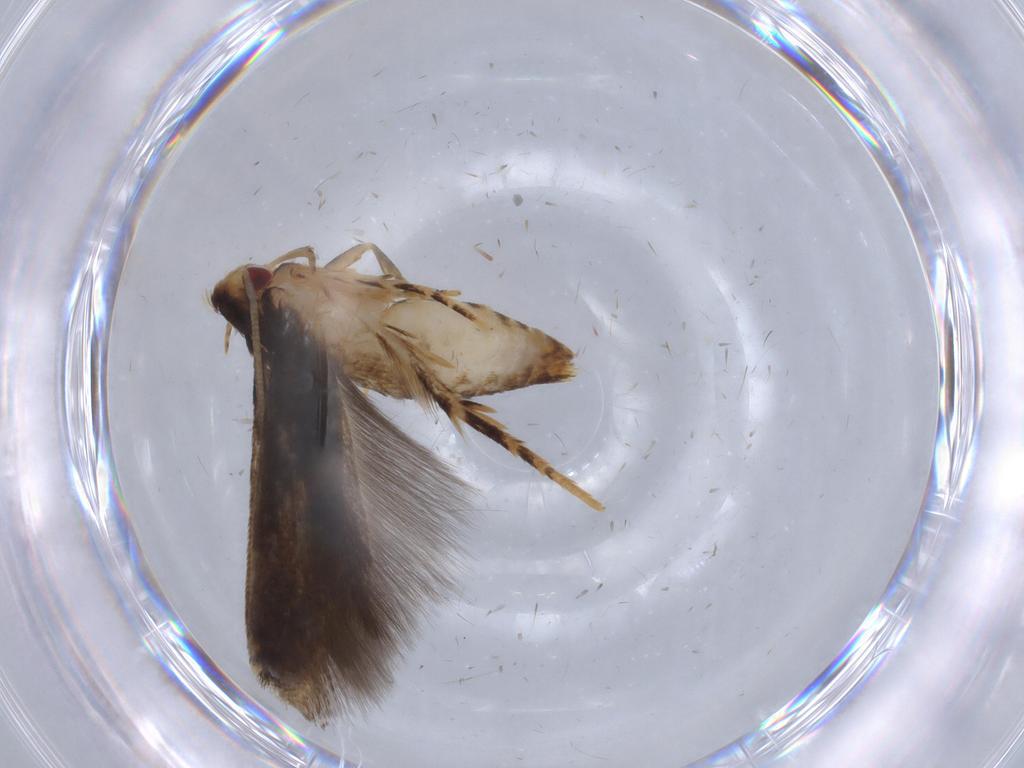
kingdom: Animalia
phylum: Arthropoda
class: Insecta
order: Lepidoptera
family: Momphidae
